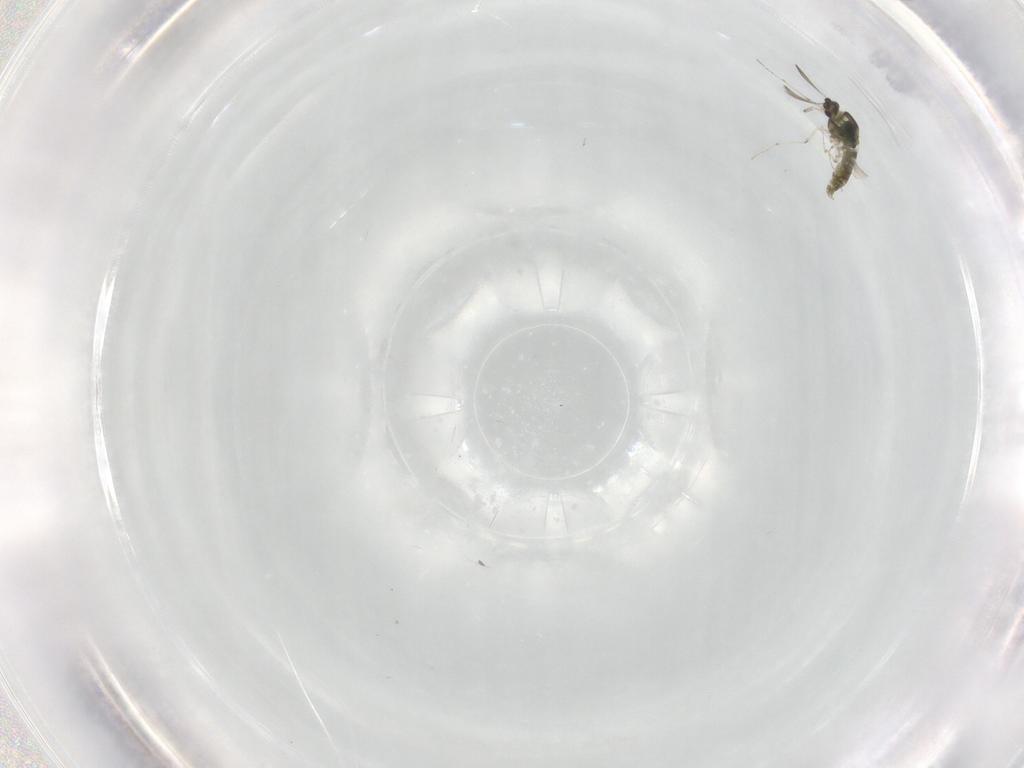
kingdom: Animalia
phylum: Arthropoda
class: Insecta
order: Diptera
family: Chironomidae
